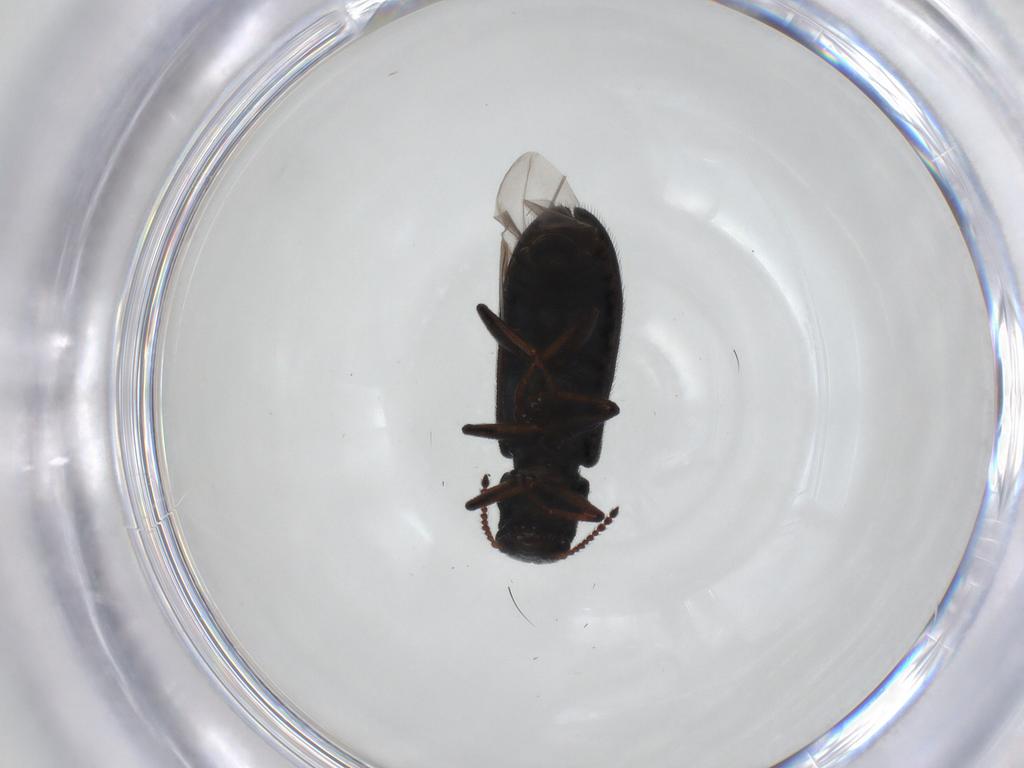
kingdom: Animalia
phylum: Arthropoda
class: Insecta
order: Coleoptera
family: Melyridae
